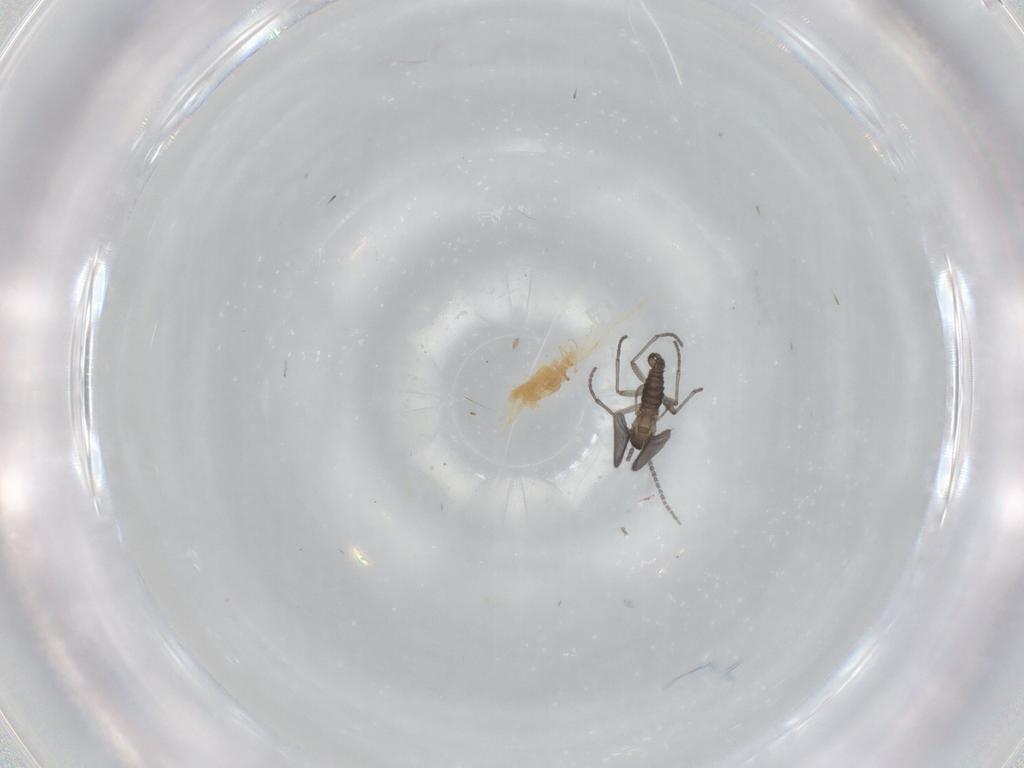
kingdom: Animalia
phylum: Arthropoda
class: Insecta
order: Diptera
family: Sciaridae
